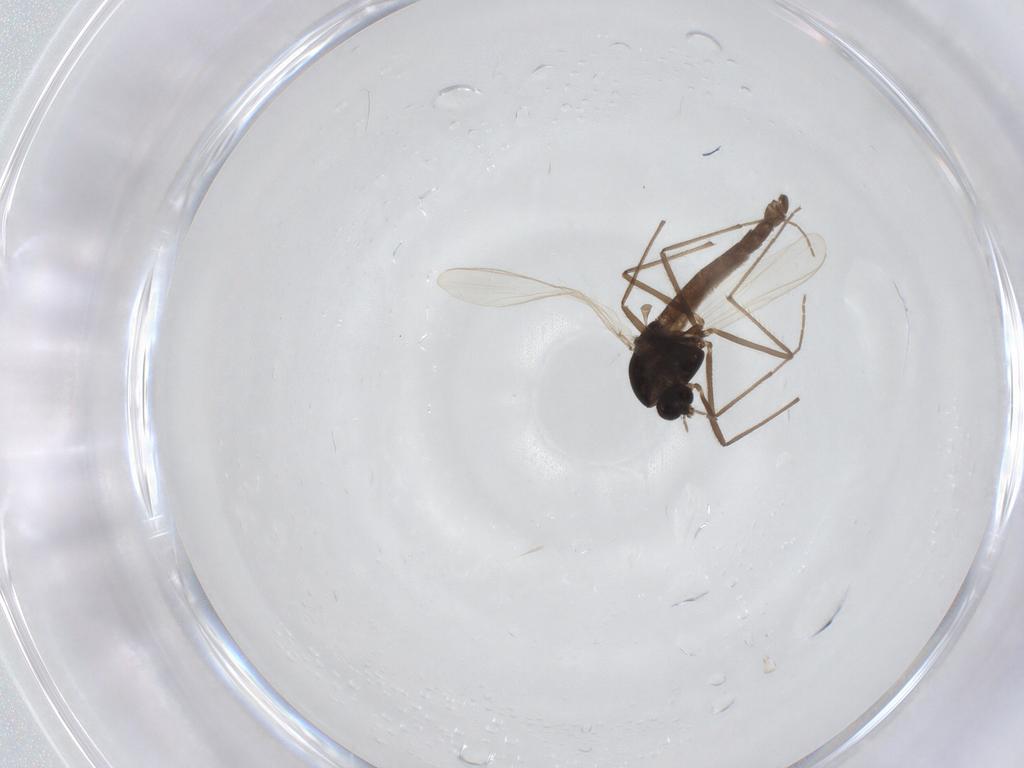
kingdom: Animalia
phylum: Arthropoda
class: Insecta
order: Diptera
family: Chironomidae
